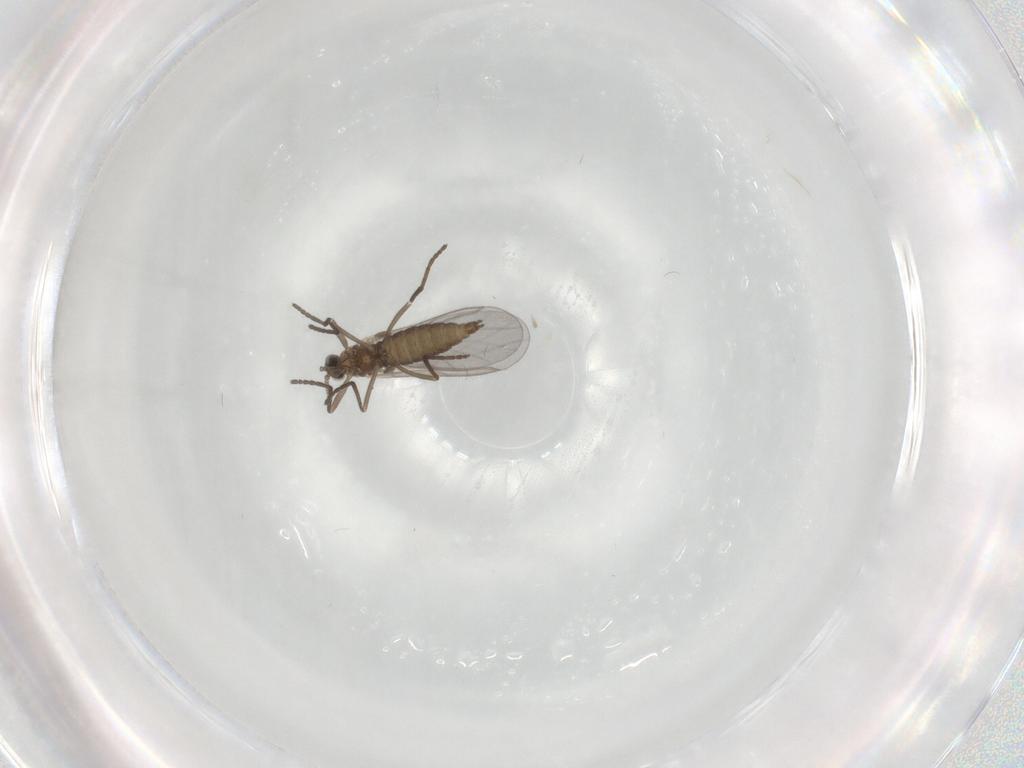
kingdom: Animalia
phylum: Arthropoda
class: Insecta
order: Diptera
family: Cecidomyiidae
